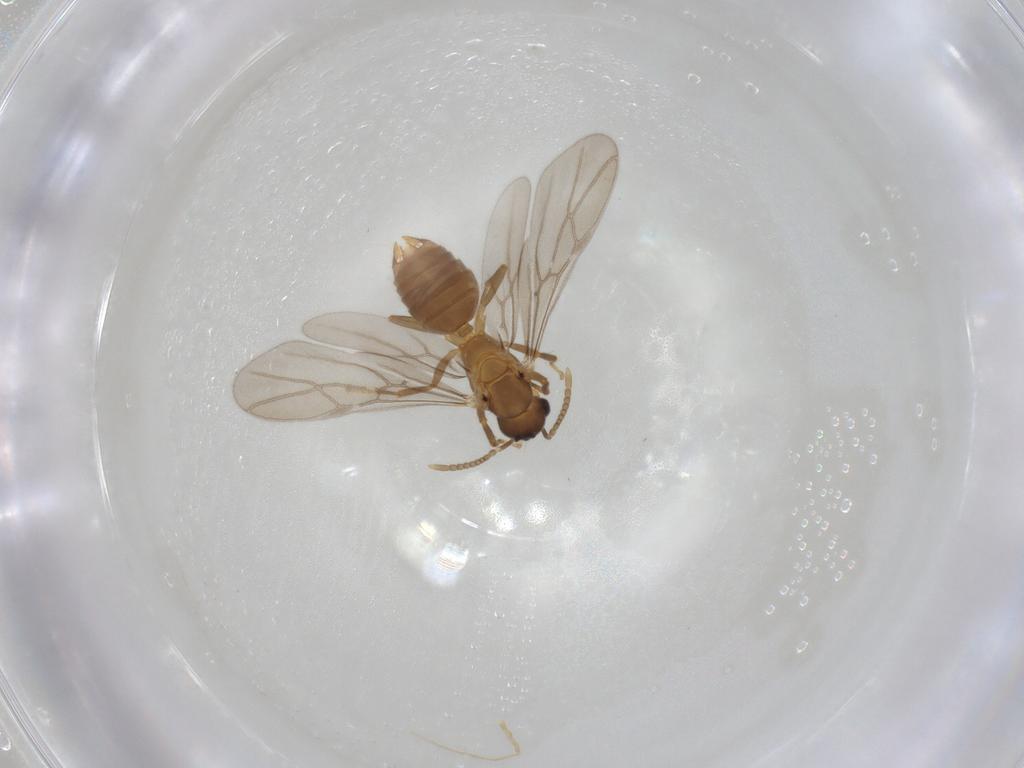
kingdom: Animalia
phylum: Arthropoda
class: Insecta
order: Hymenoptera
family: Formicidae
